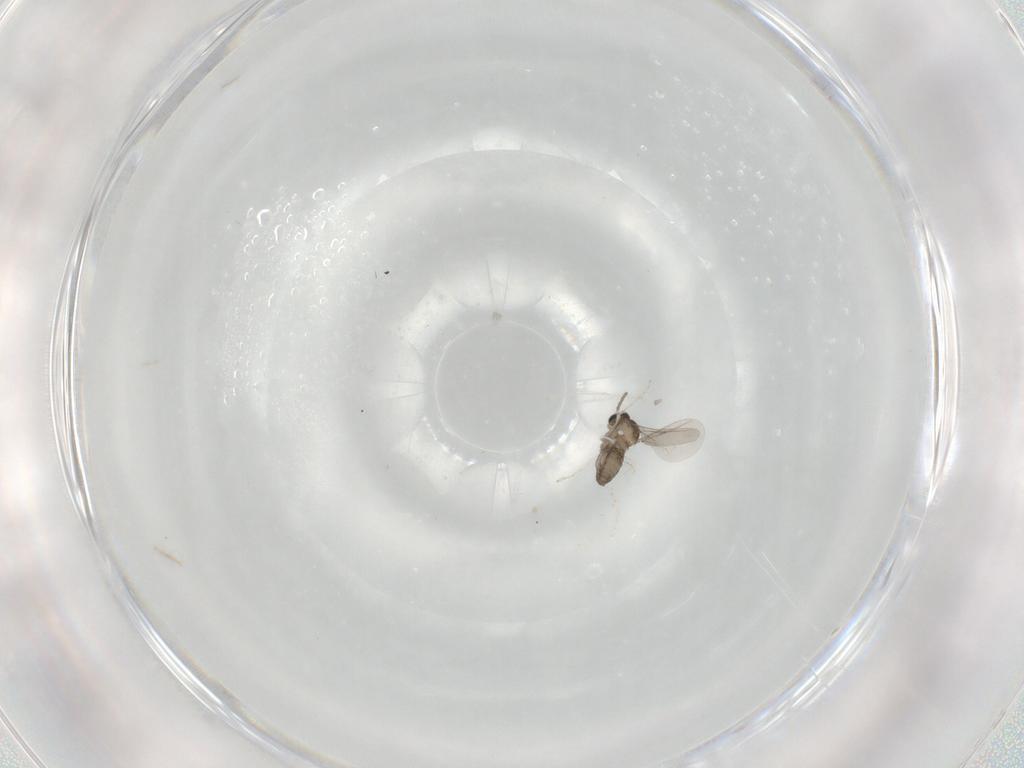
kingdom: Animalia
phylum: Arthropoda
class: Insecta
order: Diptera
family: Cecidomyiidae
